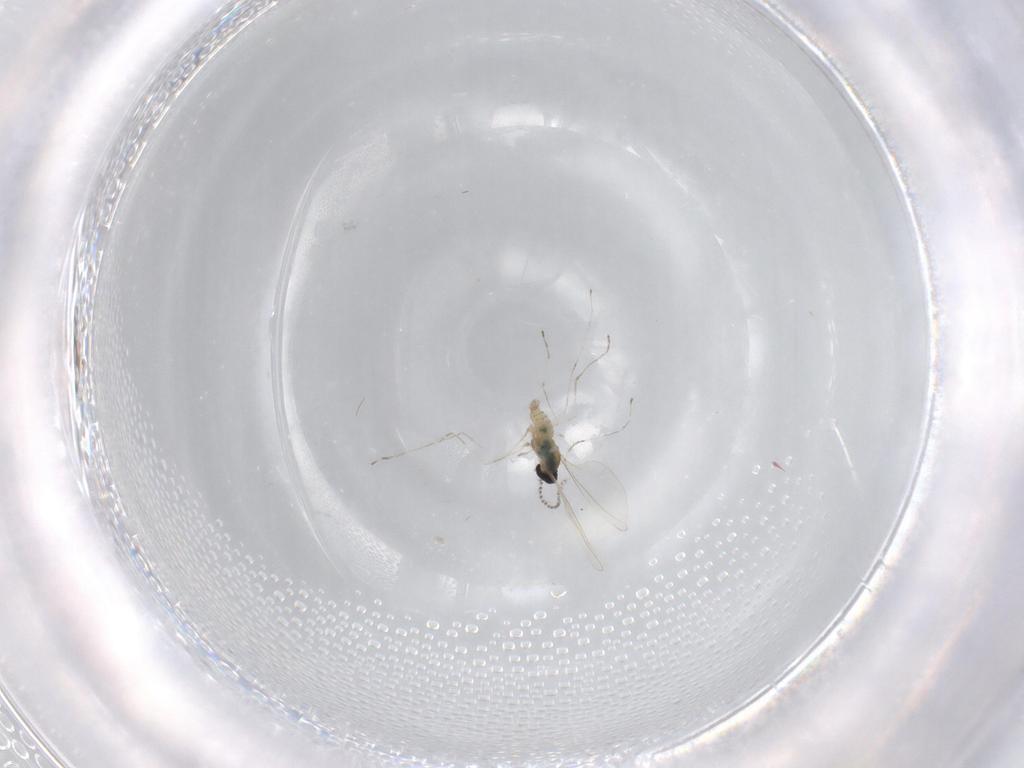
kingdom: Animalia
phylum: Arthropoda
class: Insecta
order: Diptera
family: Cecidomyiidae
